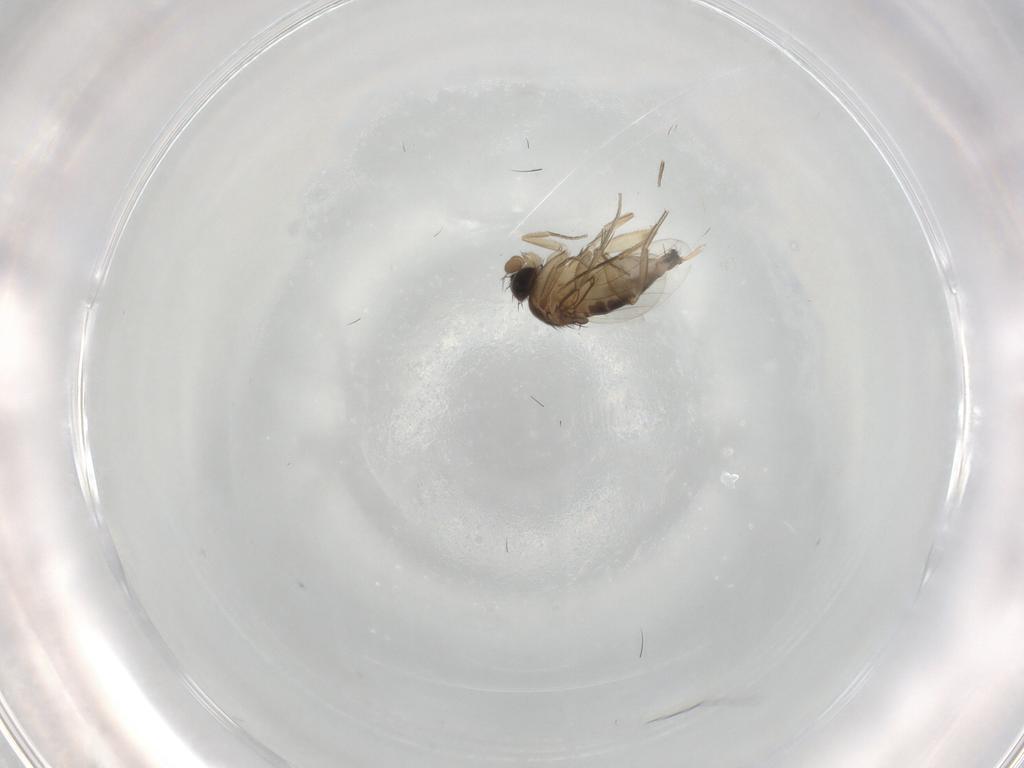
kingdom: Animalia
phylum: Arthropoda
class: Insecta
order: Diptera
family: Phoridae
